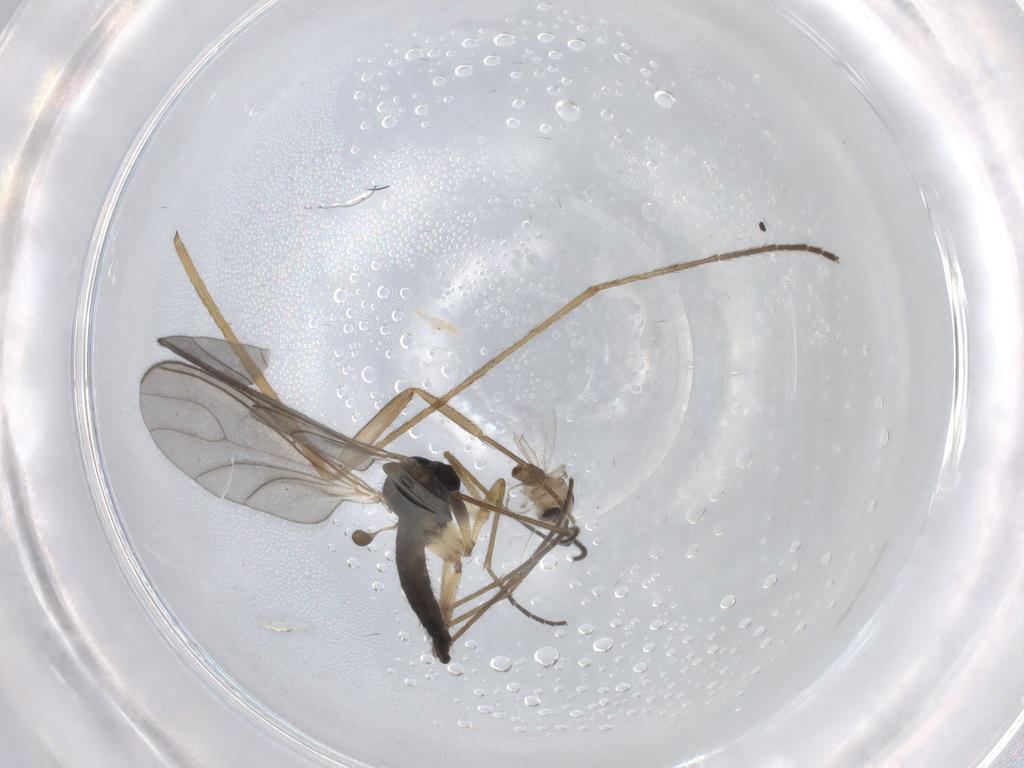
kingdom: Animalia
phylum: Arthropoda
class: Insecta
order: Diptera
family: Cecidomyiidae
